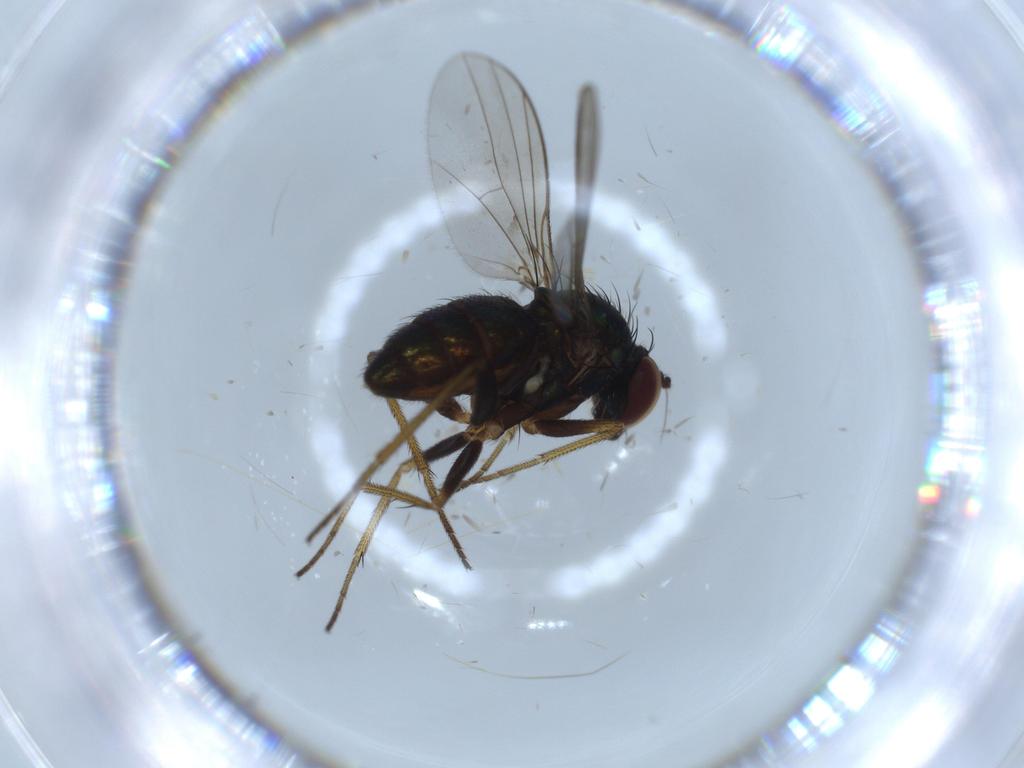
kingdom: Animalia
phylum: Arthropoda
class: Insecta
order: Diptera
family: Dolichopodidae
